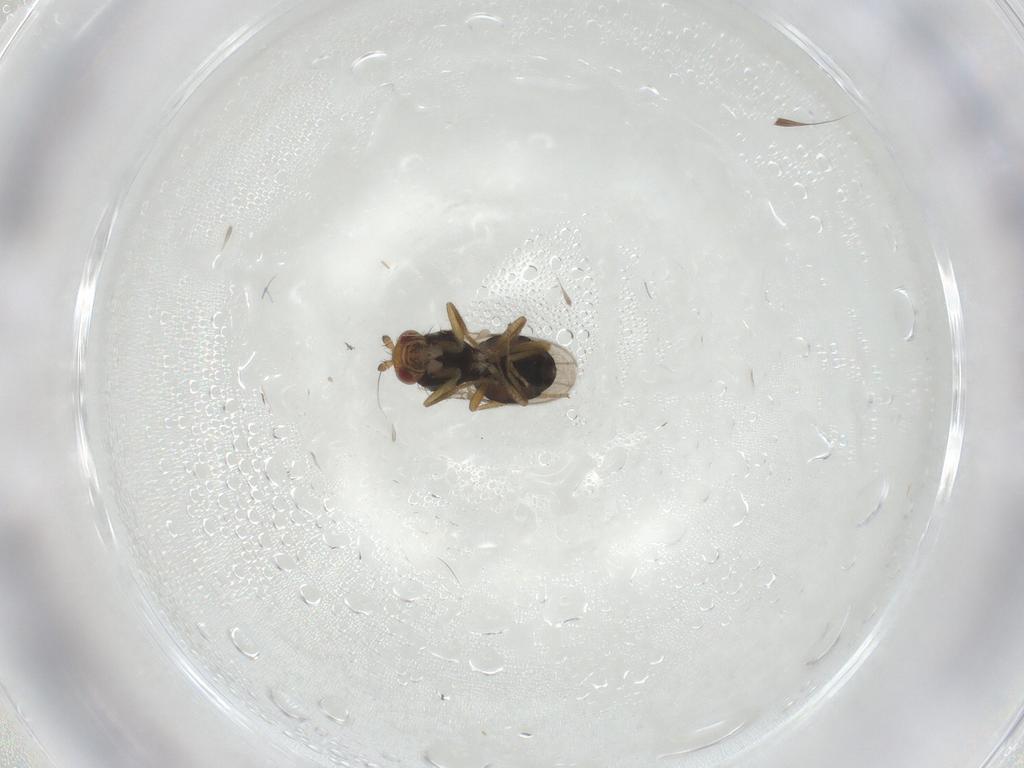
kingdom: Animalia
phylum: Arthropoda
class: Insecta
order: Diptera
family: Sphaeroceridae
